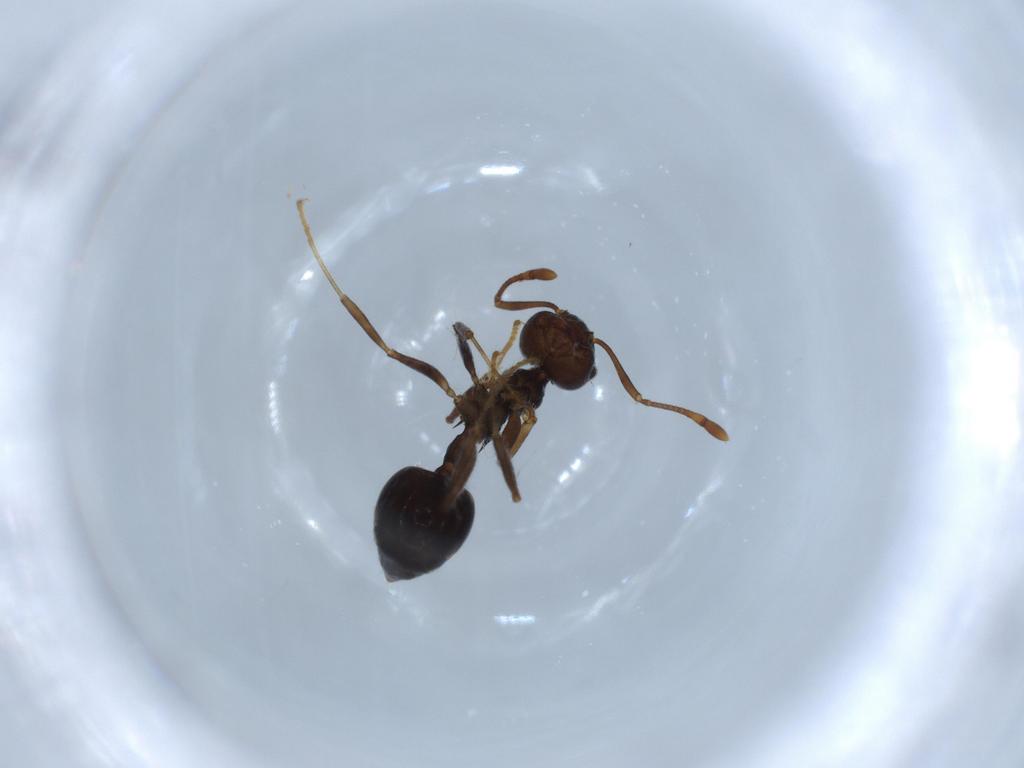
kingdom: Animalia
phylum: Arthropoda
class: Insecta
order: Hymenoptera
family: Formicidae
